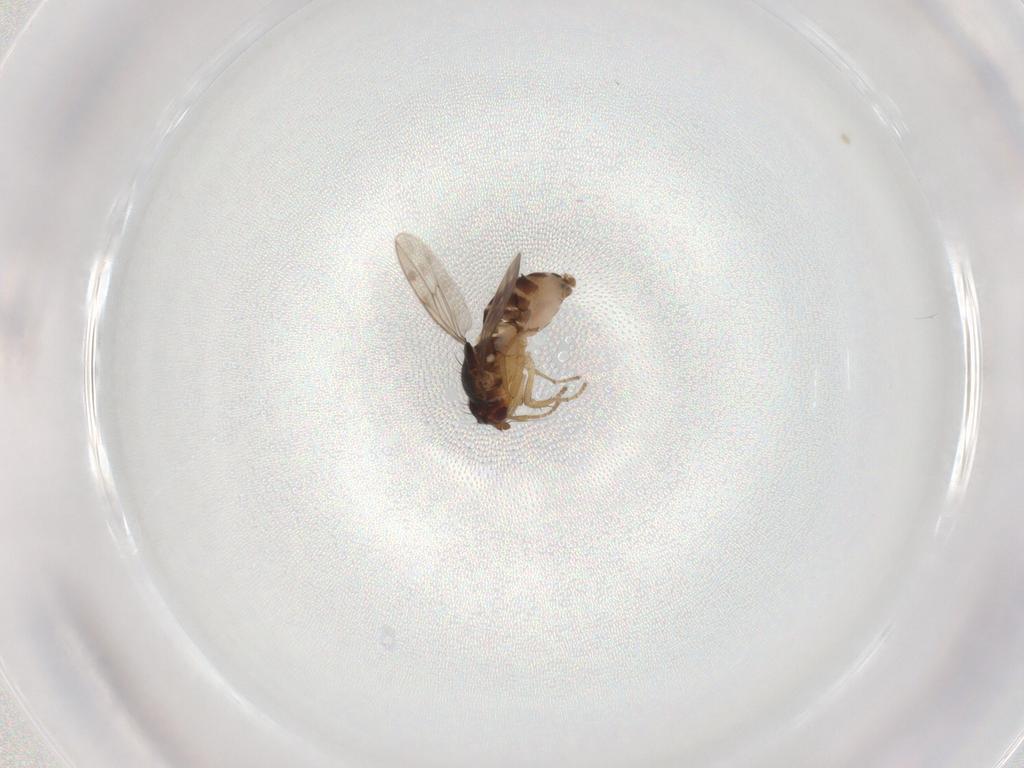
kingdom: Animalia
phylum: Arthropoda
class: Insecta
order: Diptera
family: Sphaeroceridae
